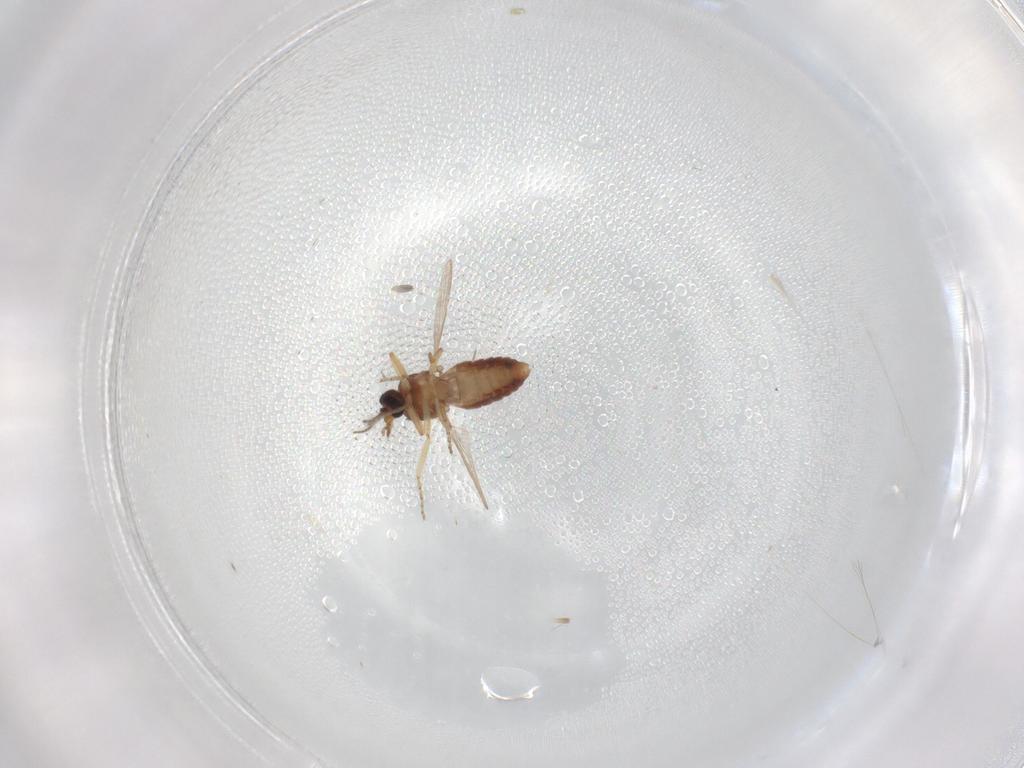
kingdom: Animalia
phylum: Arthropoda
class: Insecta
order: Diptera
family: Ceratopogonidae
